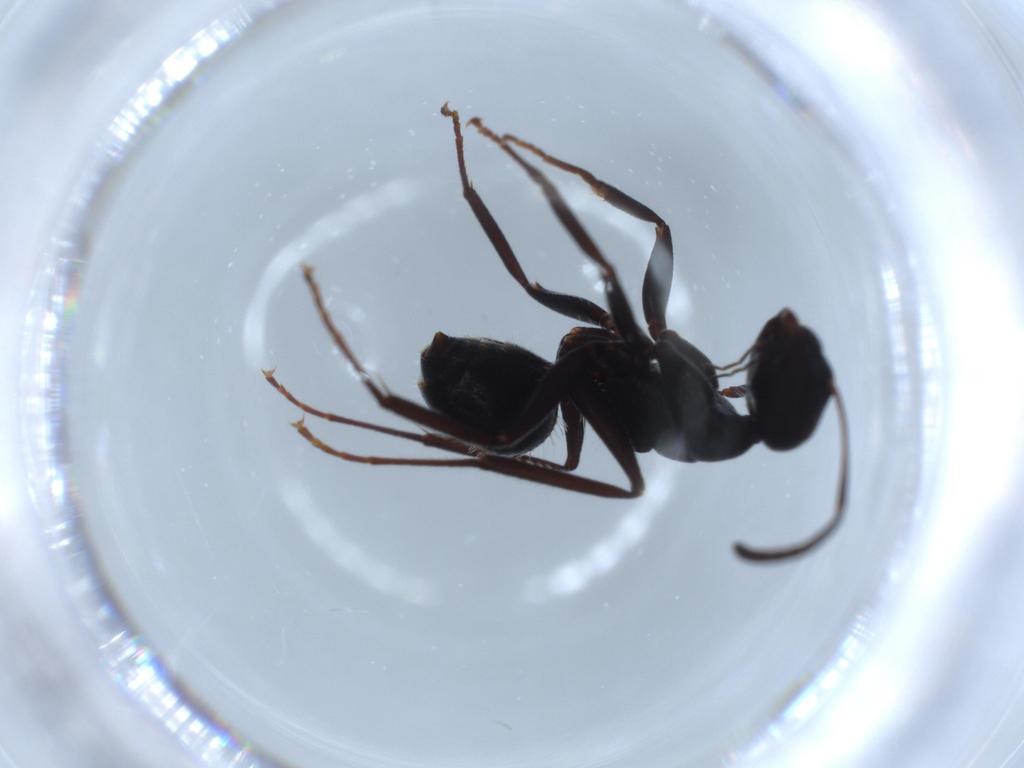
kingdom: Animalia
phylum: Arthropoda
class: Insecta
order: Hymenoptera
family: Formicidae
